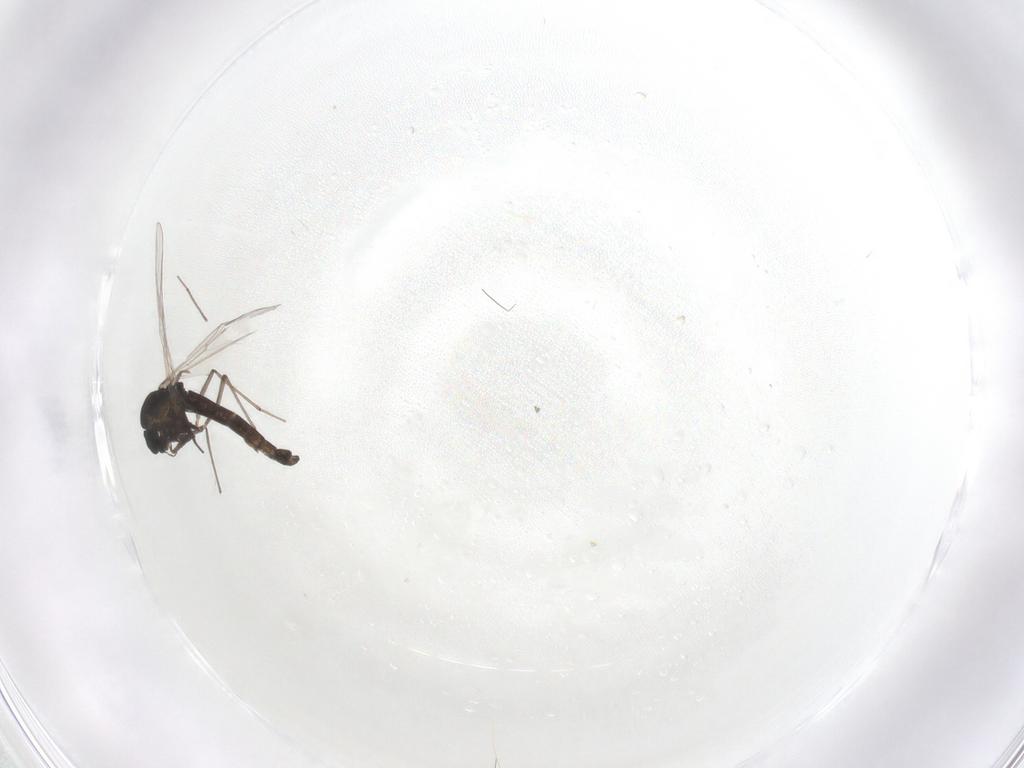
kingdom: Animalia
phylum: Arthropoda
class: Insecta
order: Diptera
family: Chironomidae
